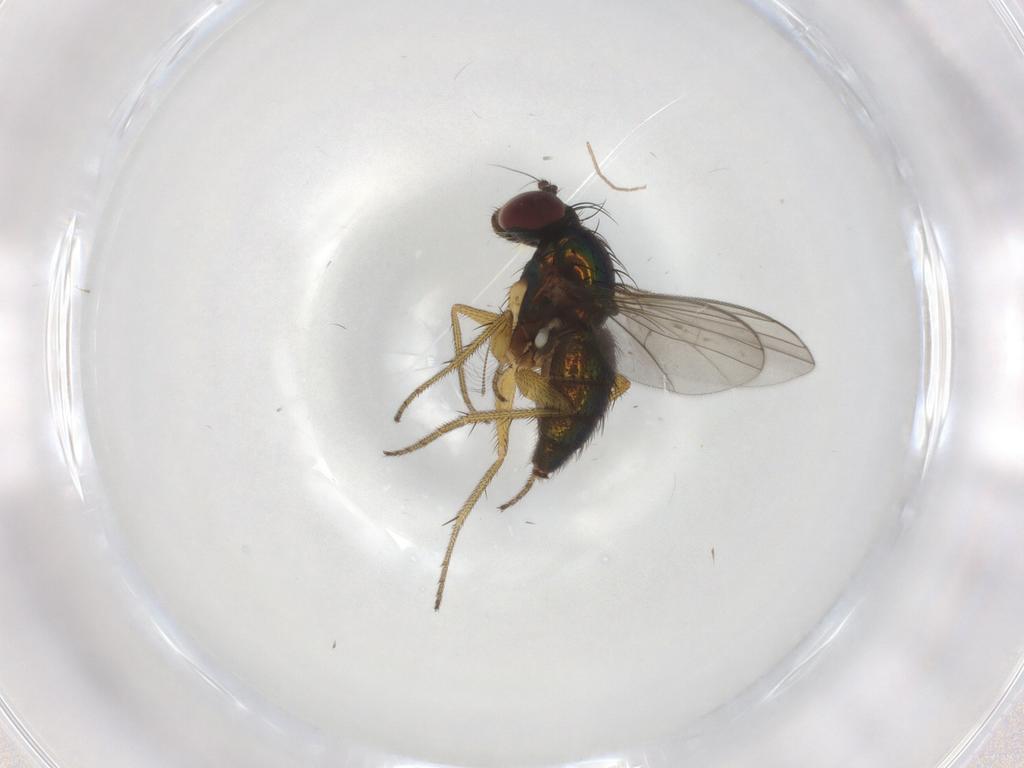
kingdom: Animalia
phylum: Arthropoda
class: Insecta
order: Diptera
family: Dolichopodidae
